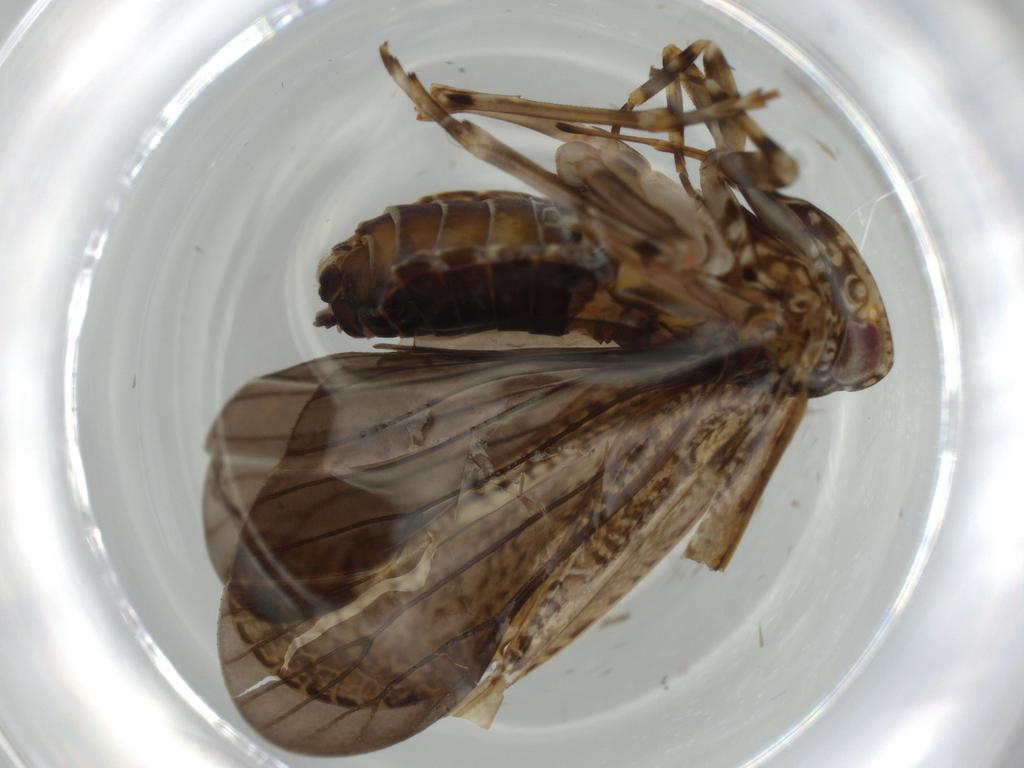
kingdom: Animalia
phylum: Arthropoda
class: Insecta
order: Hemiptera
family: Rhyparochromidae
